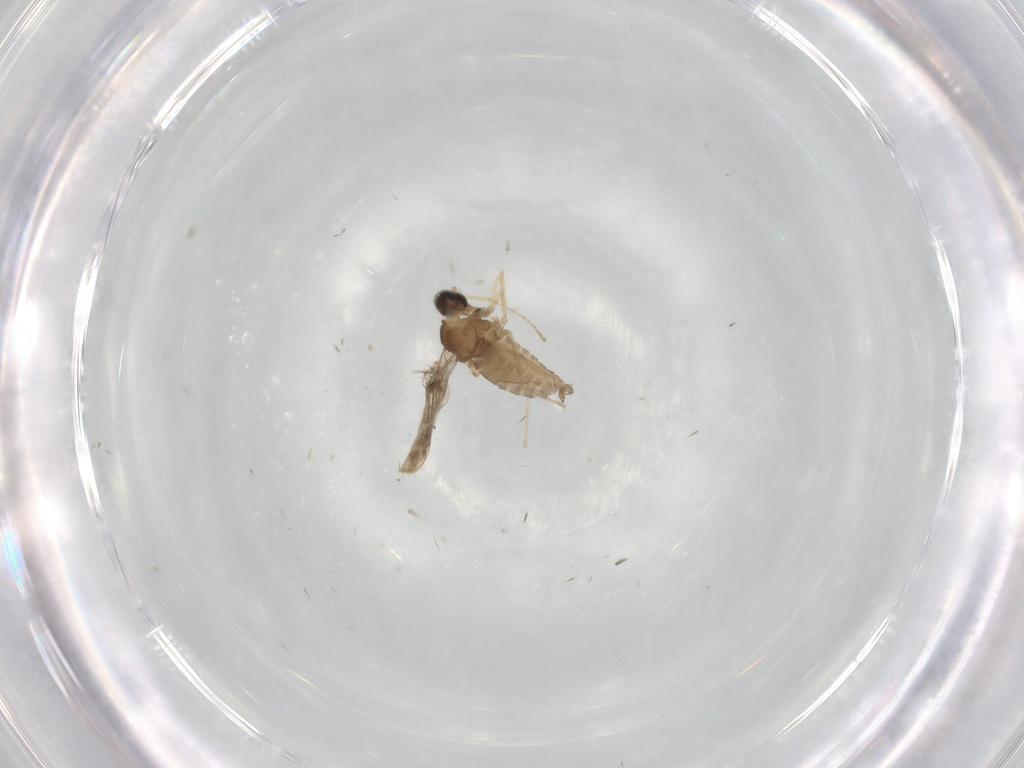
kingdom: Animalia
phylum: Arthropoda
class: Insecta
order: Diptera
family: Cecidomyiidae
